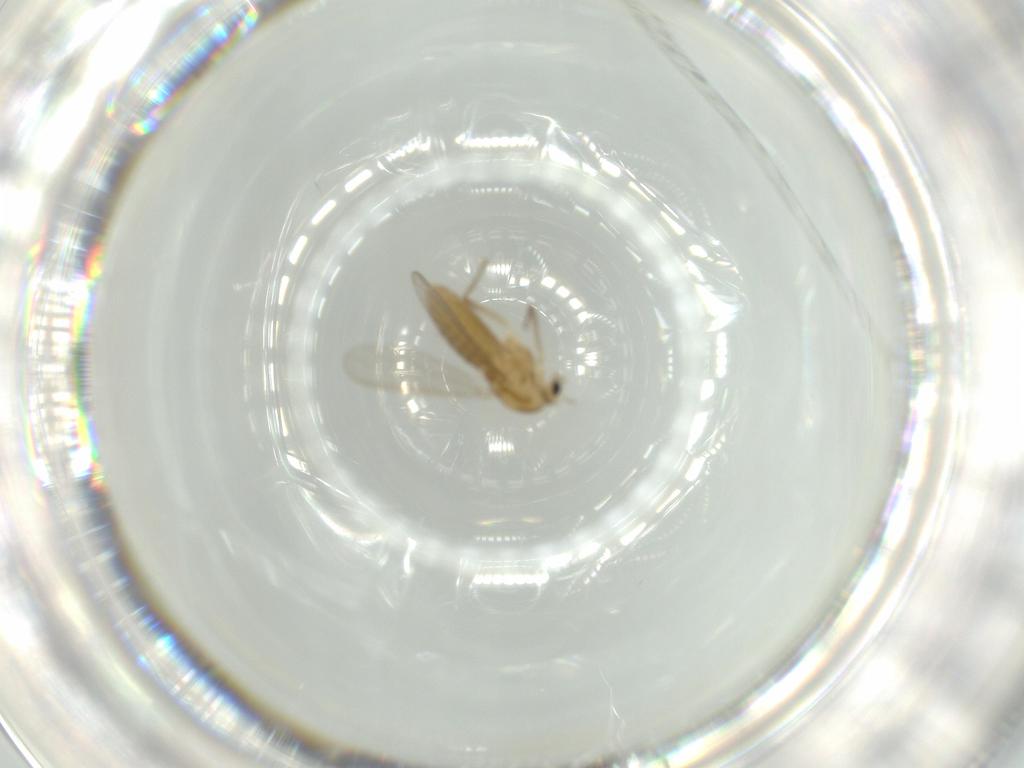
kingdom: Animalia
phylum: Arthropoda
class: Insecta
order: Diptera
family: Chironomidae
